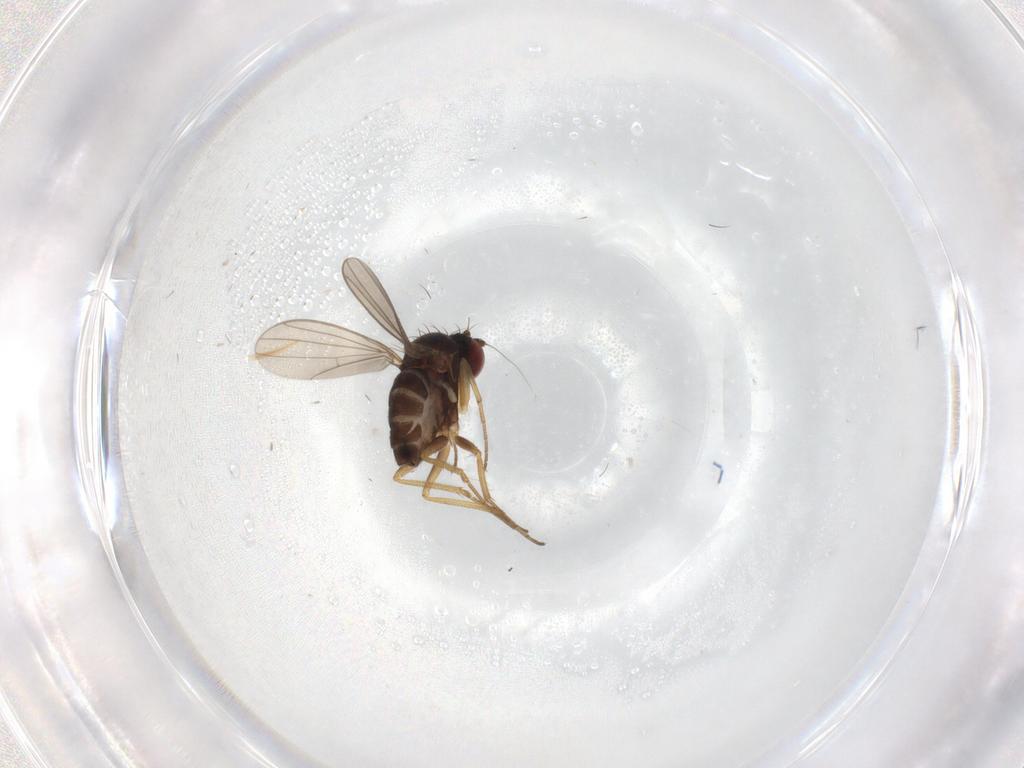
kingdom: Animalia
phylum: Arthropoda
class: Insecta
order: Diptera
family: Dolichopodidae
